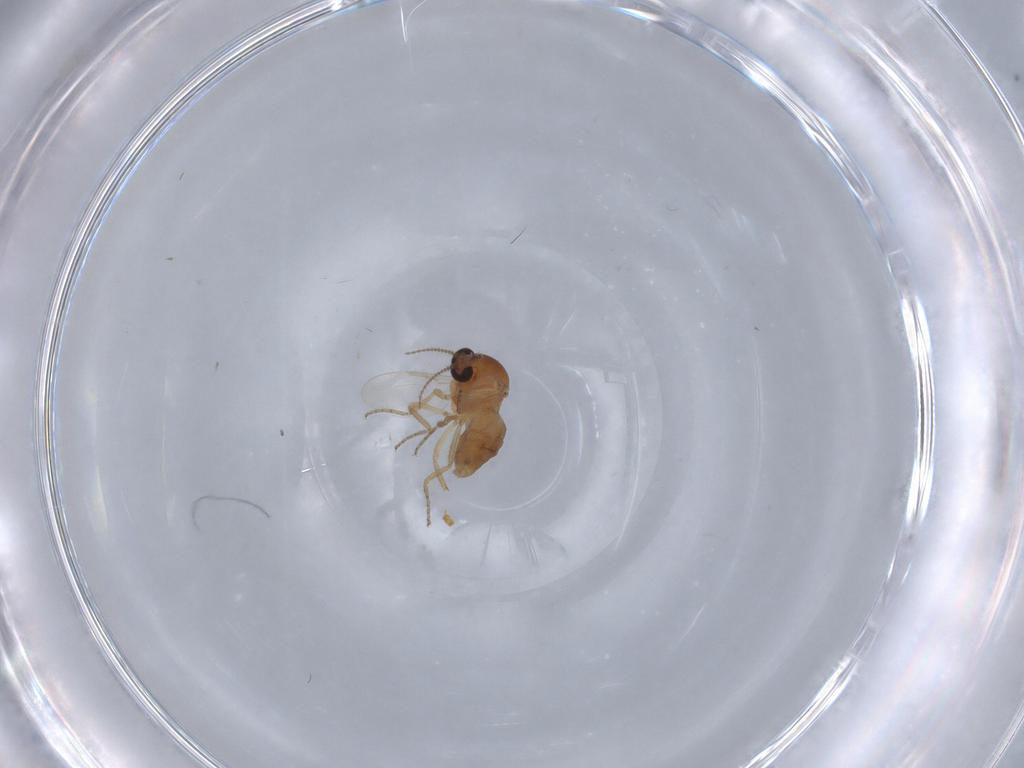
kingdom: Animalia
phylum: Arthropoda
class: Insecta
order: Diptera
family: Ceratopogonidae
